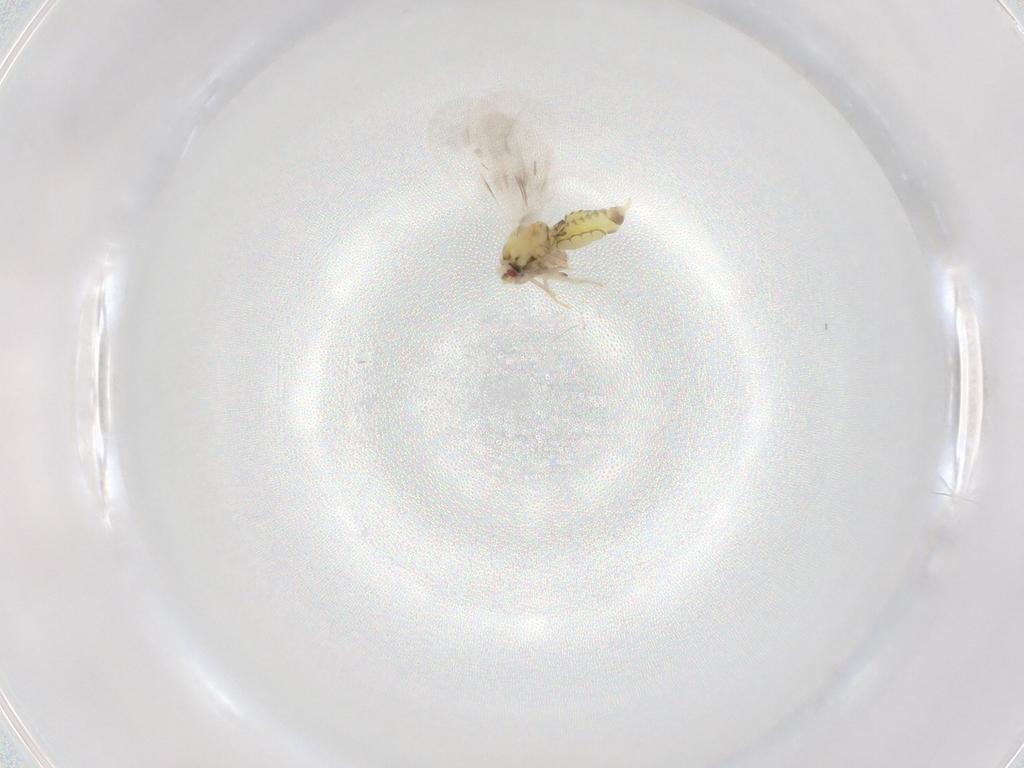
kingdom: Animalia
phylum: Arthropoda
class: Insecta
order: Hemiptera
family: Aleyrodidae
